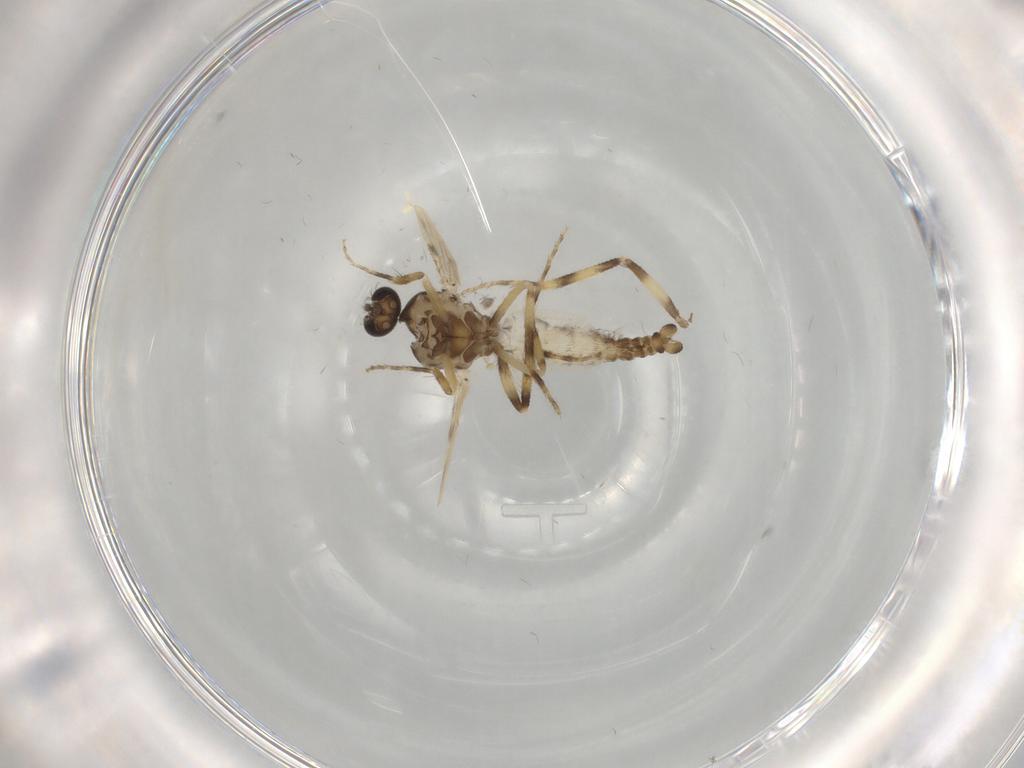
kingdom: Animalia
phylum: Arthropoda
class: Insecta
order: Diptera
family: Ceratopogonidae
